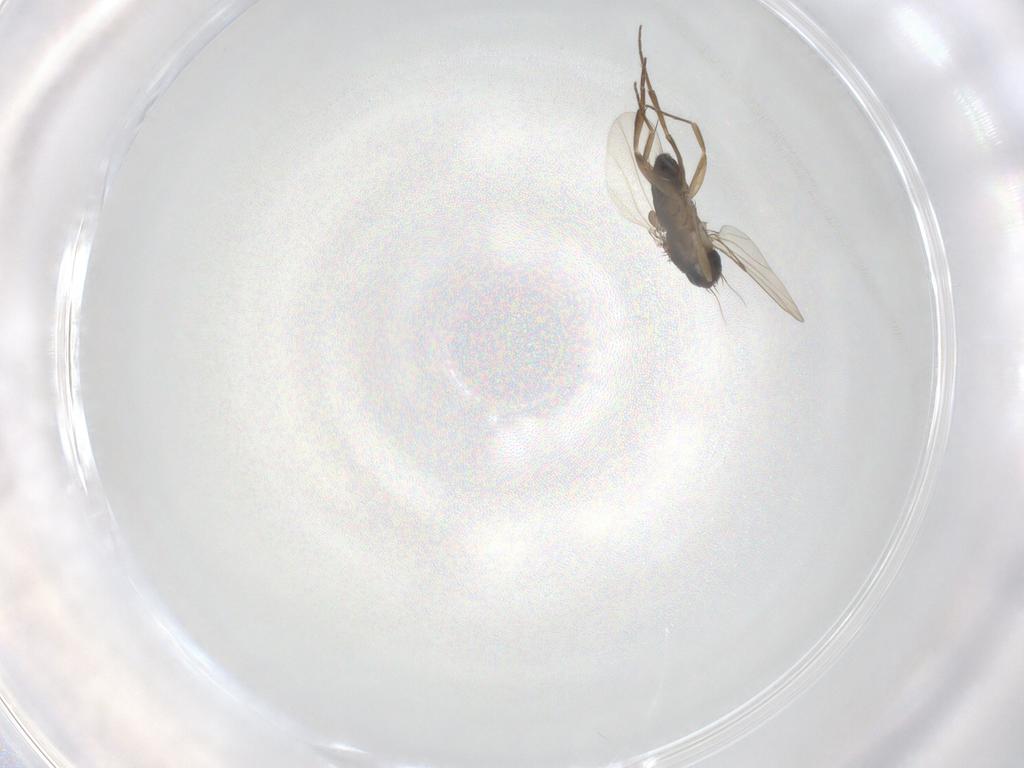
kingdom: Animalia
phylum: Arthropoda
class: Insecta
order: Diptera
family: Phoridae
